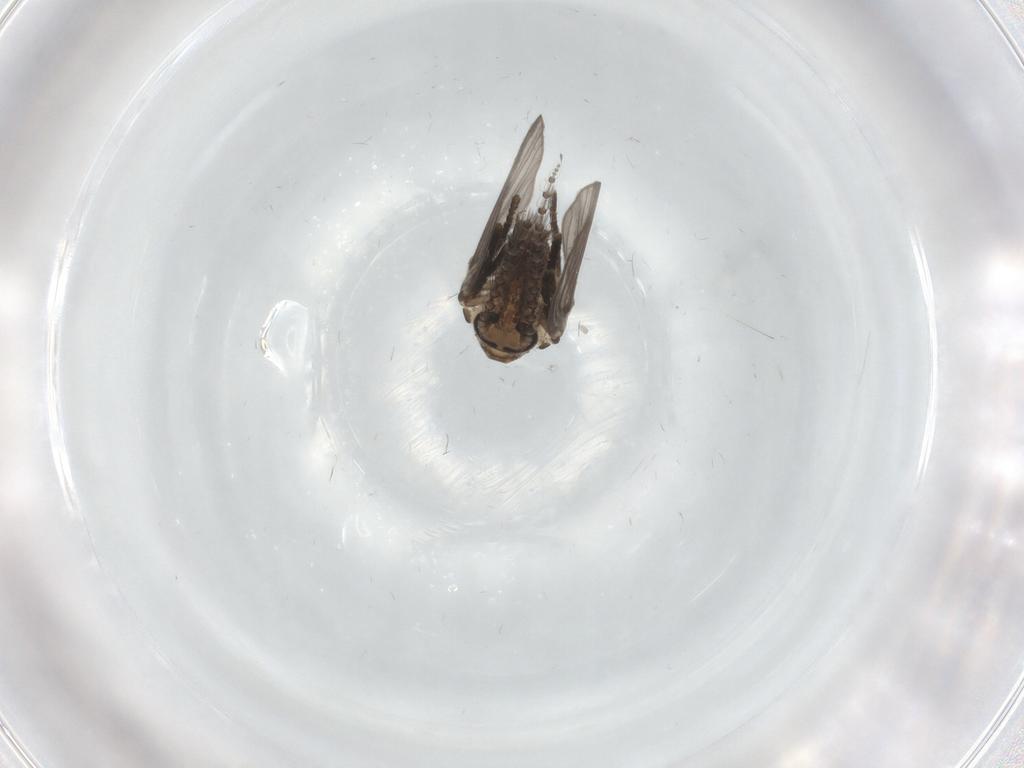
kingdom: Animalia
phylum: Arthropoda
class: Insecta
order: Diptera
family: Psychodidae
